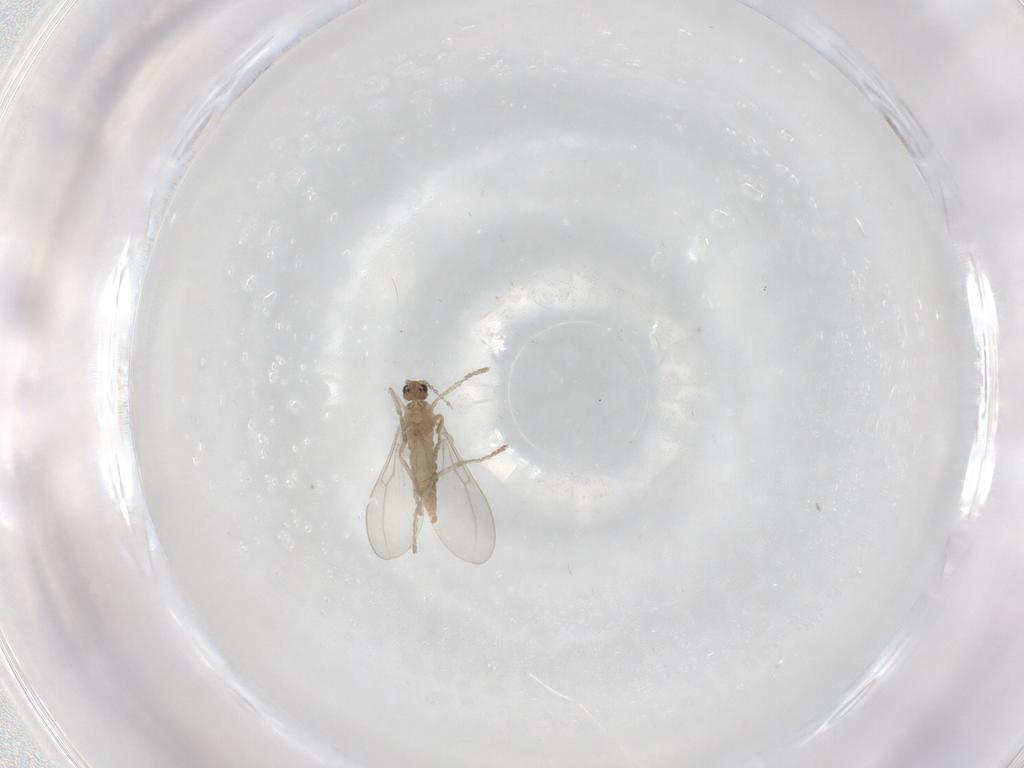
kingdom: Animalia
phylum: Arthropoda
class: Insecta
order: Diptera
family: Cecidomyiidae
